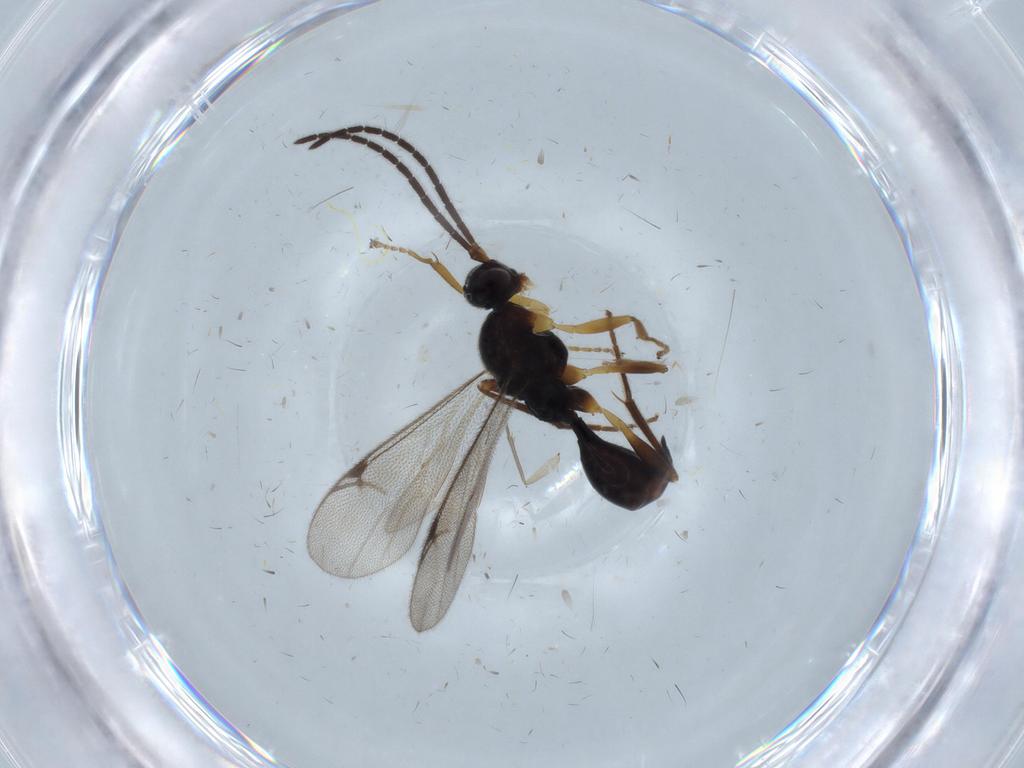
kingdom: Animalia
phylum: Arthropoda
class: Insecta
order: Hymenoptera
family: Proctotrupidae
